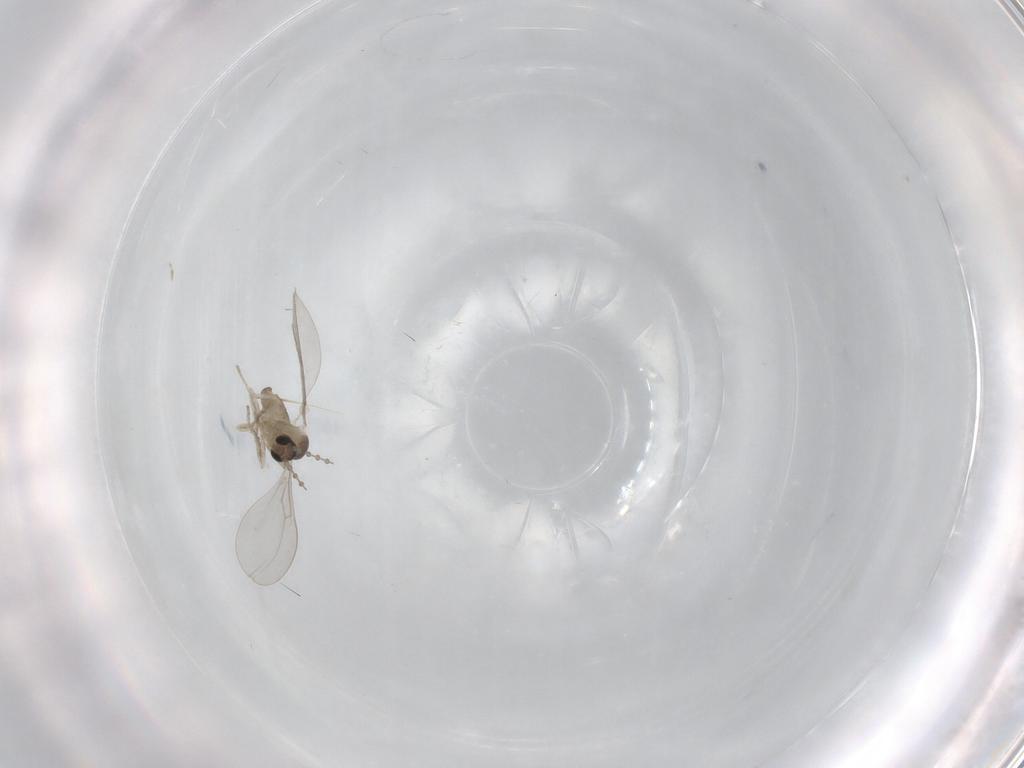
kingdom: Animalia
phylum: Arthropoda
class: Insecta
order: Diptera
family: Cecidomyiidae
